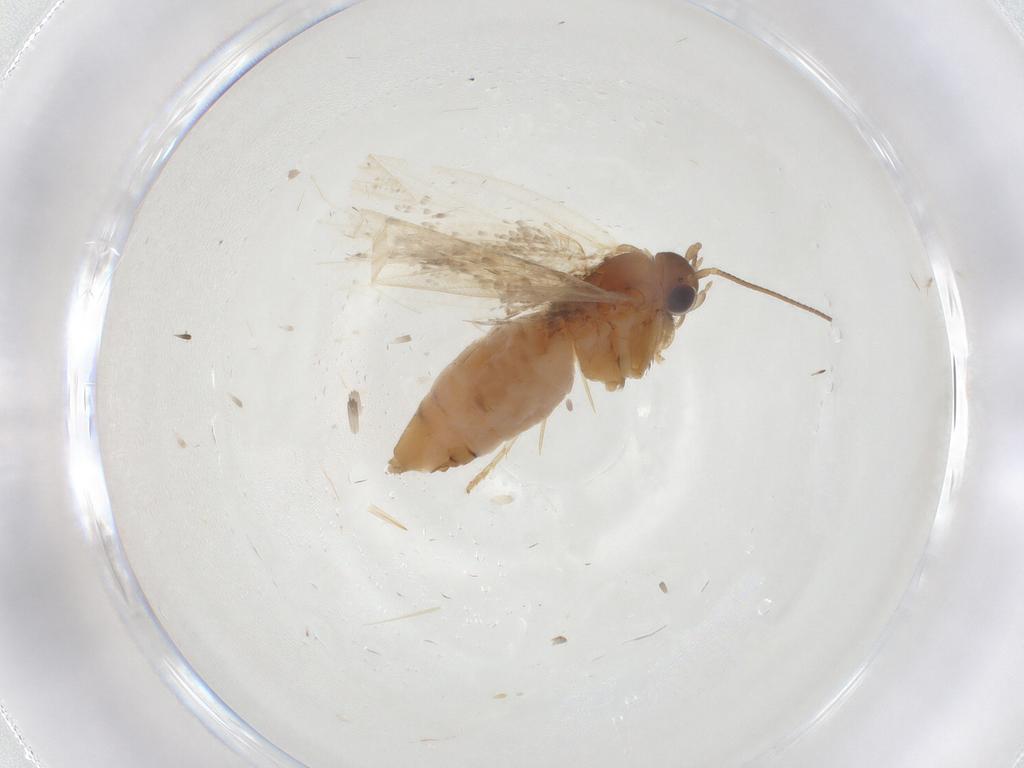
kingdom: Animalia
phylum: Arthropoda
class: Insecta
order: Lepidoptera
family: Tortricidae
